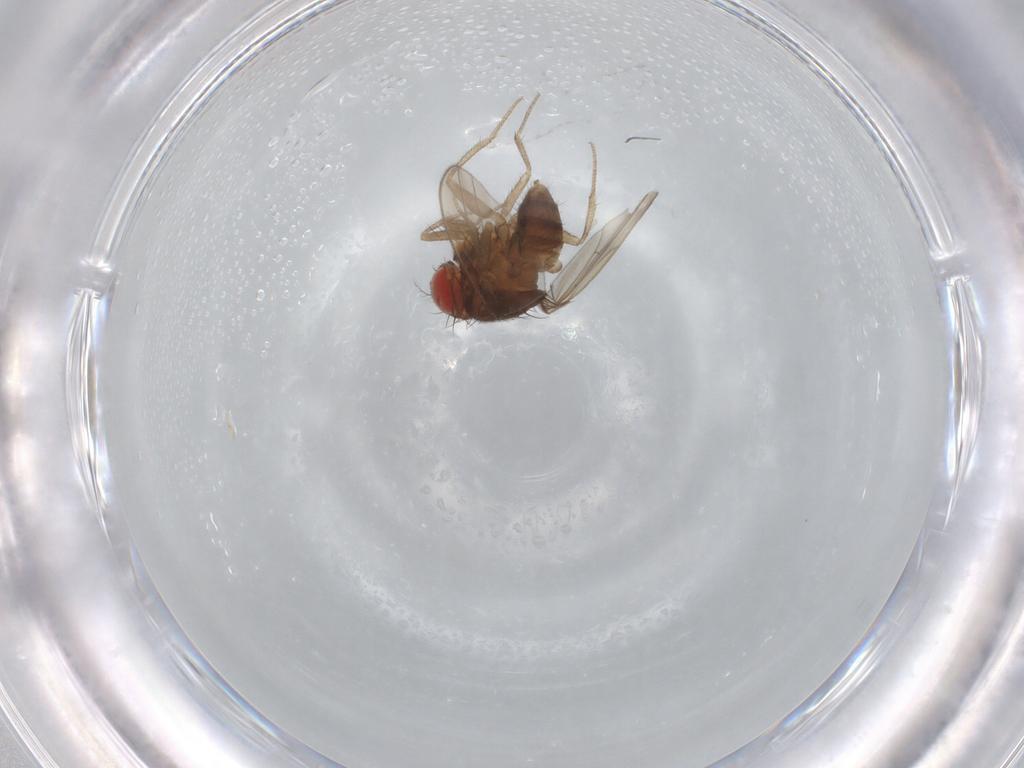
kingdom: Animalia
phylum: Arthropoda
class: Insecta
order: Diptera
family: Drosophilidae
